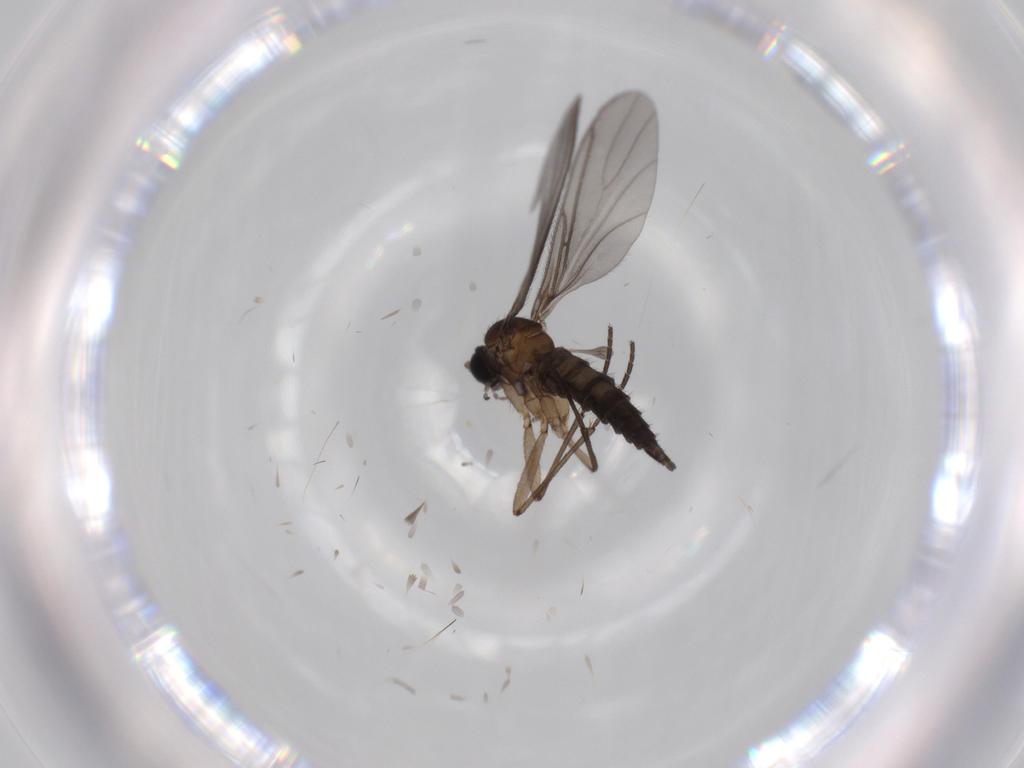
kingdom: Animalia
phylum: Arthropoda
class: Insecta
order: Diptera
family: Sciaridae
